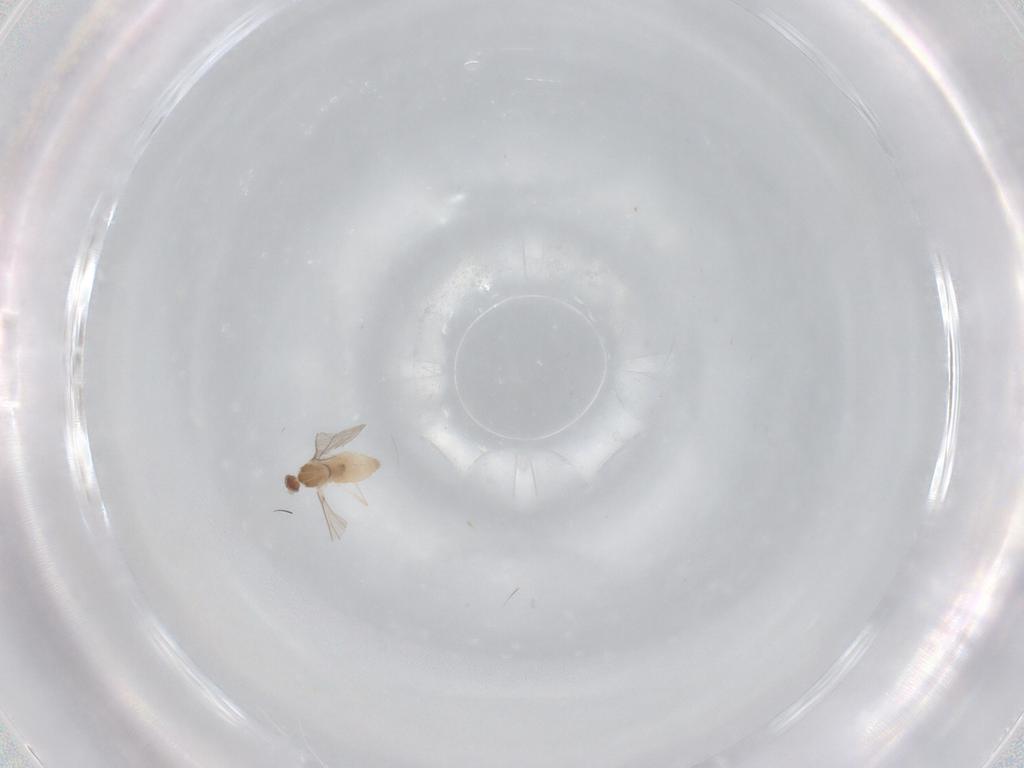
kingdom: Animalia
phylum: Arthropoda
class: Insecta
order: Diptera
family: Cecidomyiidae
